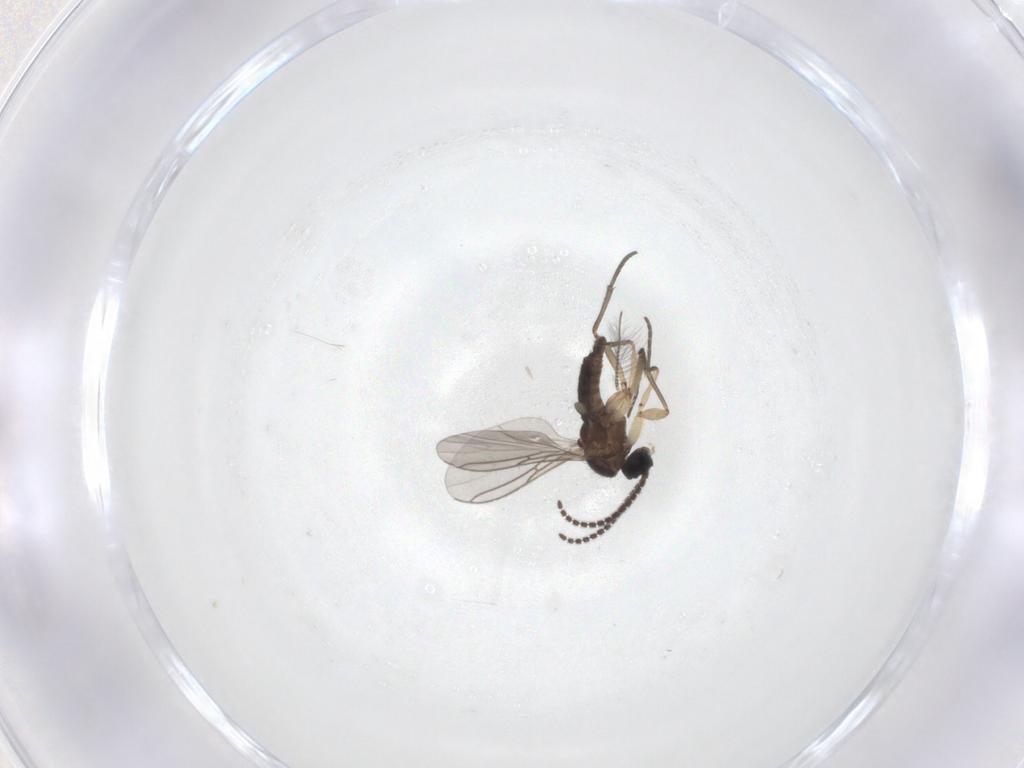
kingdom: Animalia
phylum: Arthropoda
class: Insecta
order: Diptera
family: Sciaridae
